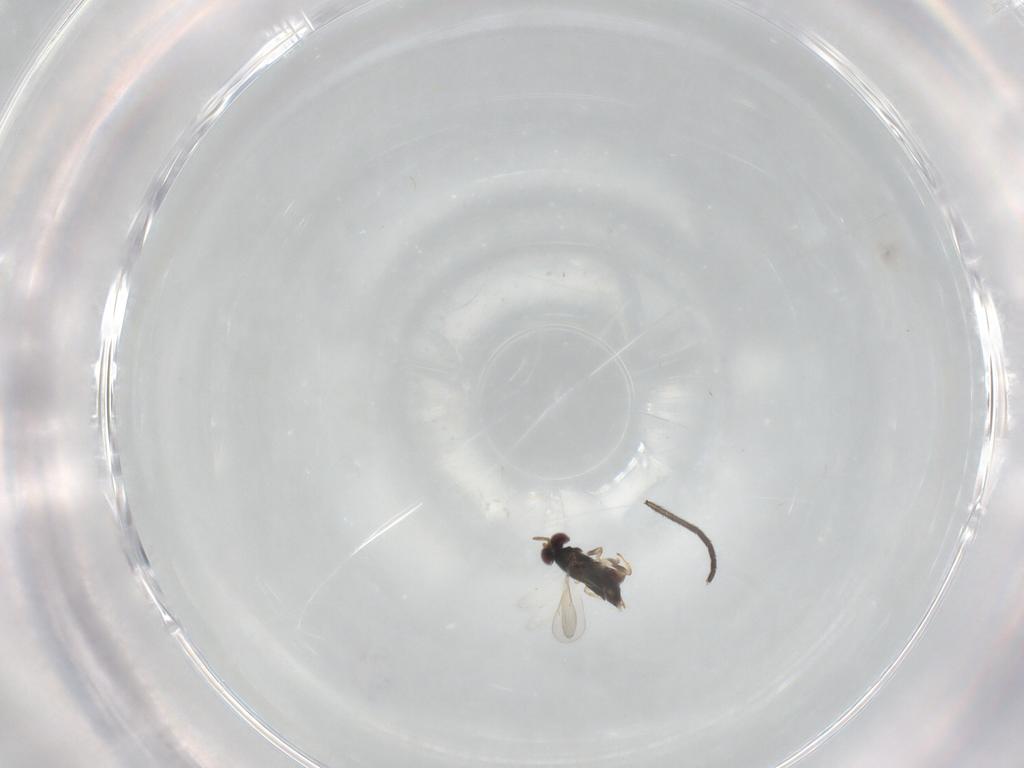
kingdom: Animalia
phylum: Arthropoda
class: Insecta
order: Hymenoptera
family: Aphelinidae
